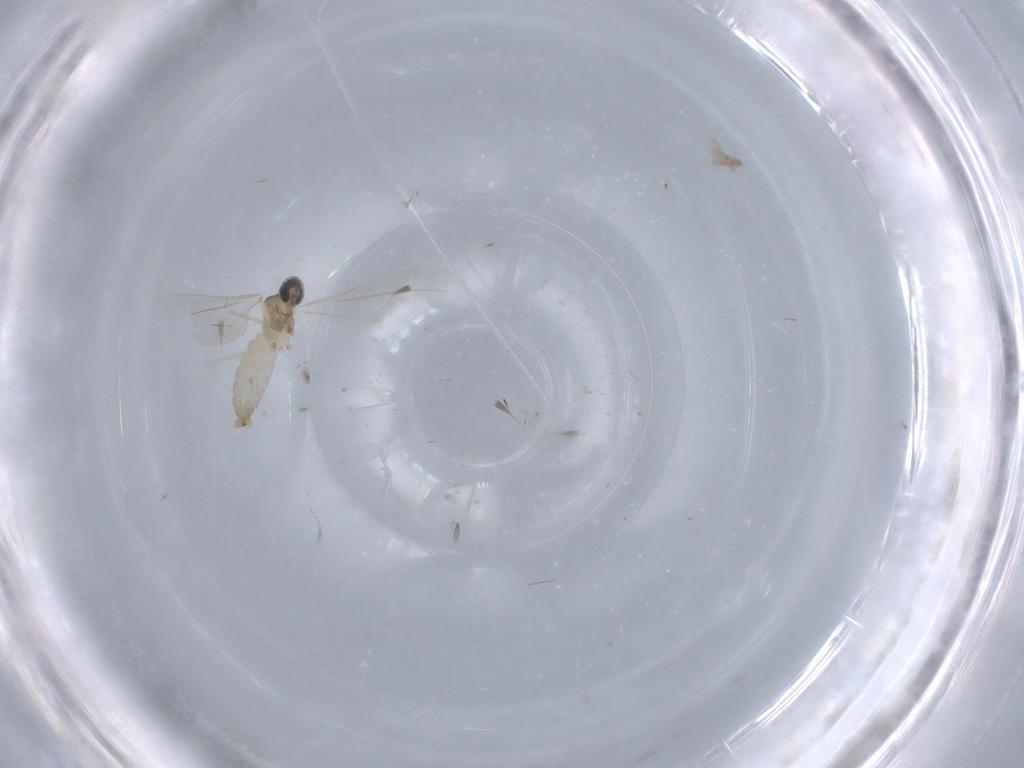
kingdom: Animalia
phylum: Arthropoda
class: Insecta
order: Diptera
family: Cecidomyiidae
